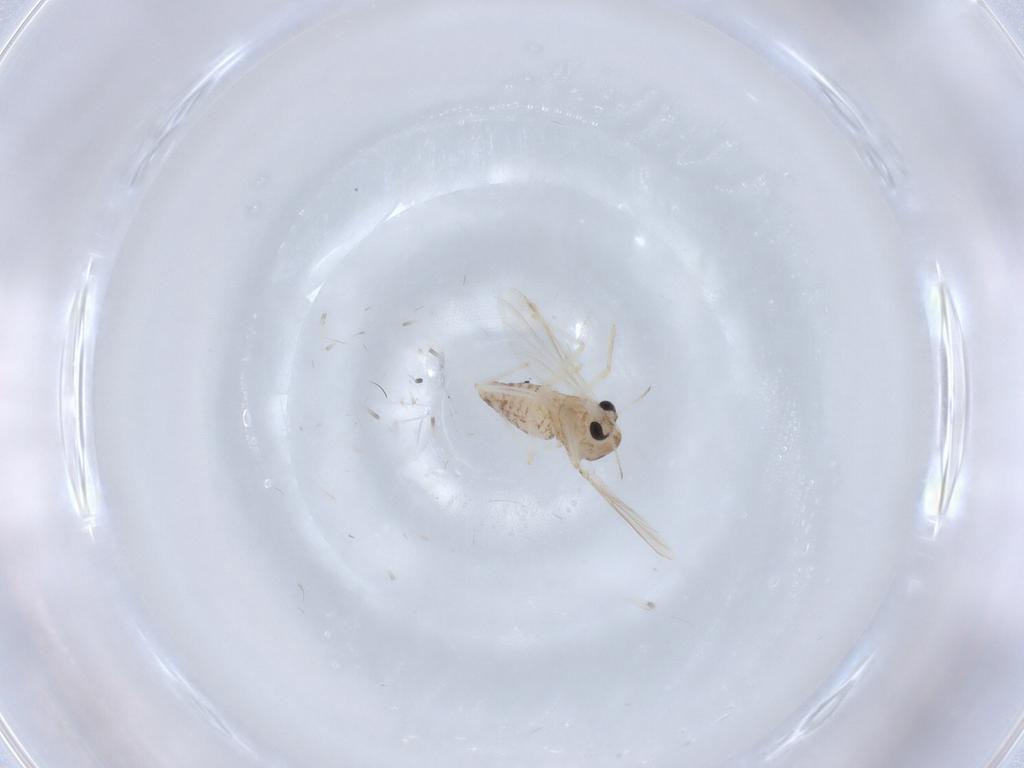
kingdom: Animalia
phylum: Arthropoda
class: Insecta
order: Diptera
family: Chironomidae
